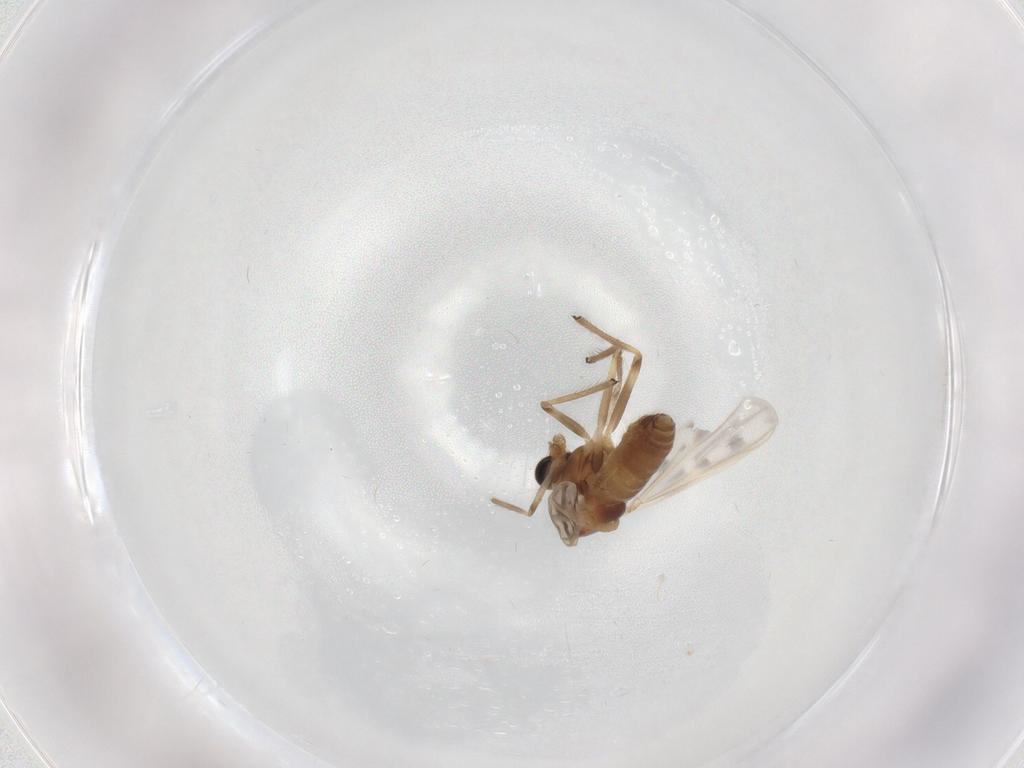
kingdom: Animalia
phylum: Arthropoda
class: Insecta
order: Diptera
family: Chironomidae
